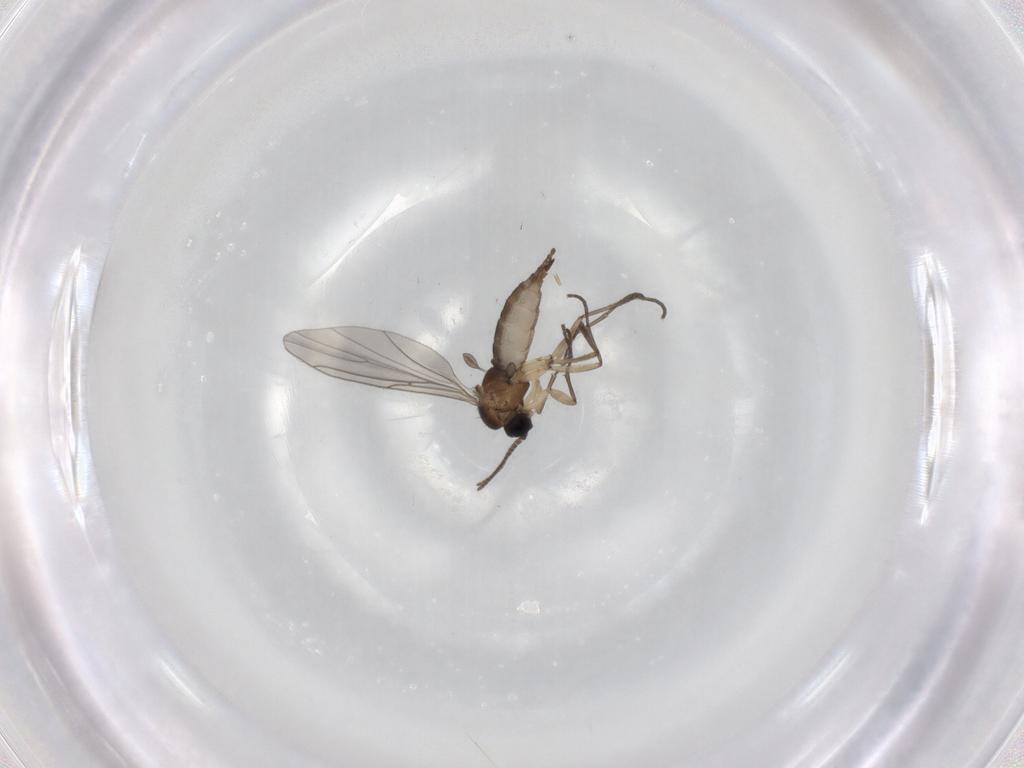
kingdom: Animalia
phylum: Arthropoda
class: Insecta
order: Diptera
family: Sciaridae
